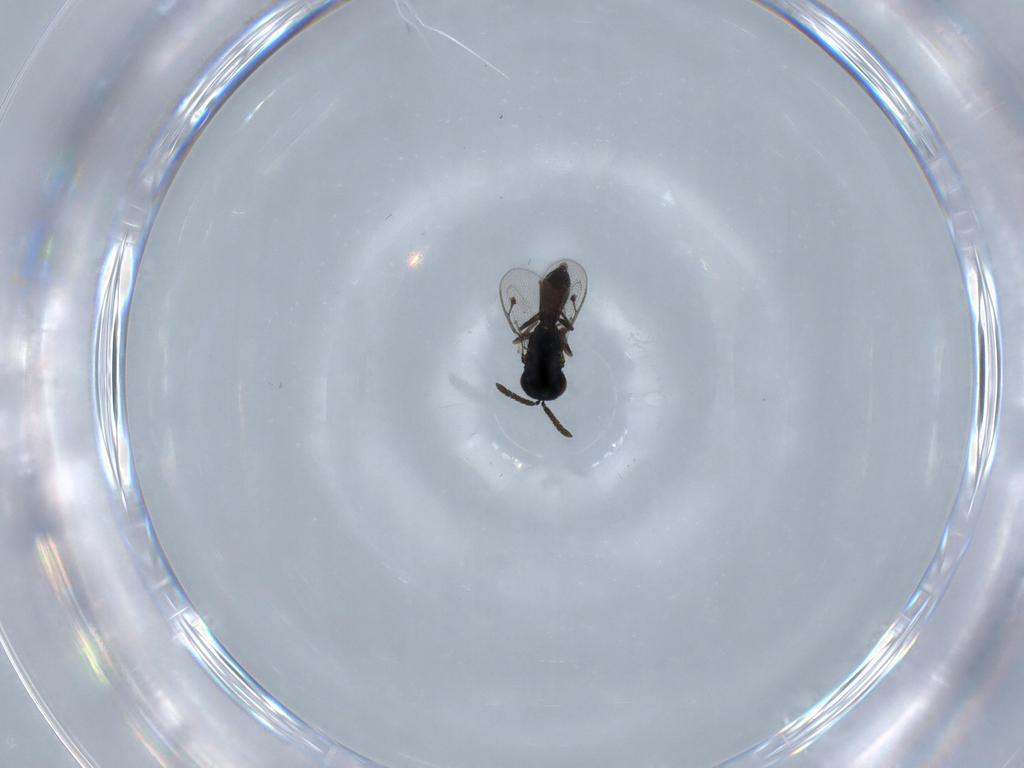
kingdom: Animalia
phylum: Arthropoda
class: Insecta
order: Hymenoptera
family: Pteromalidae
